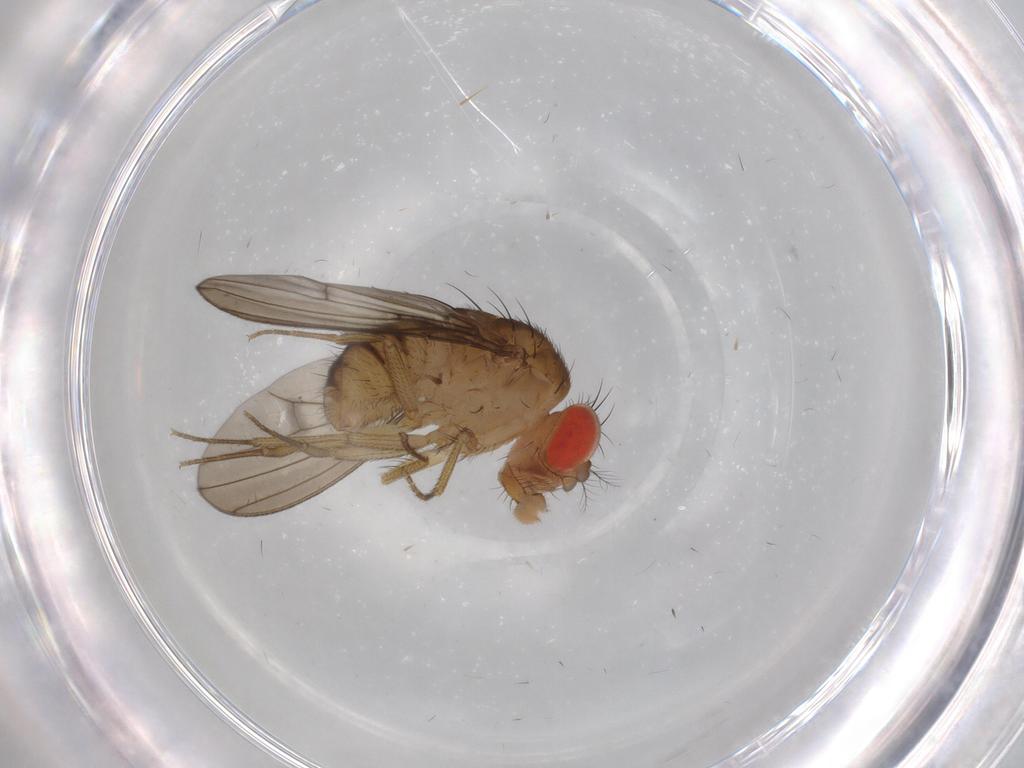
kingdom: Animalia
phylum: Arthropoda
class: Insecta
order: Diptera
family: Drosophilidae
